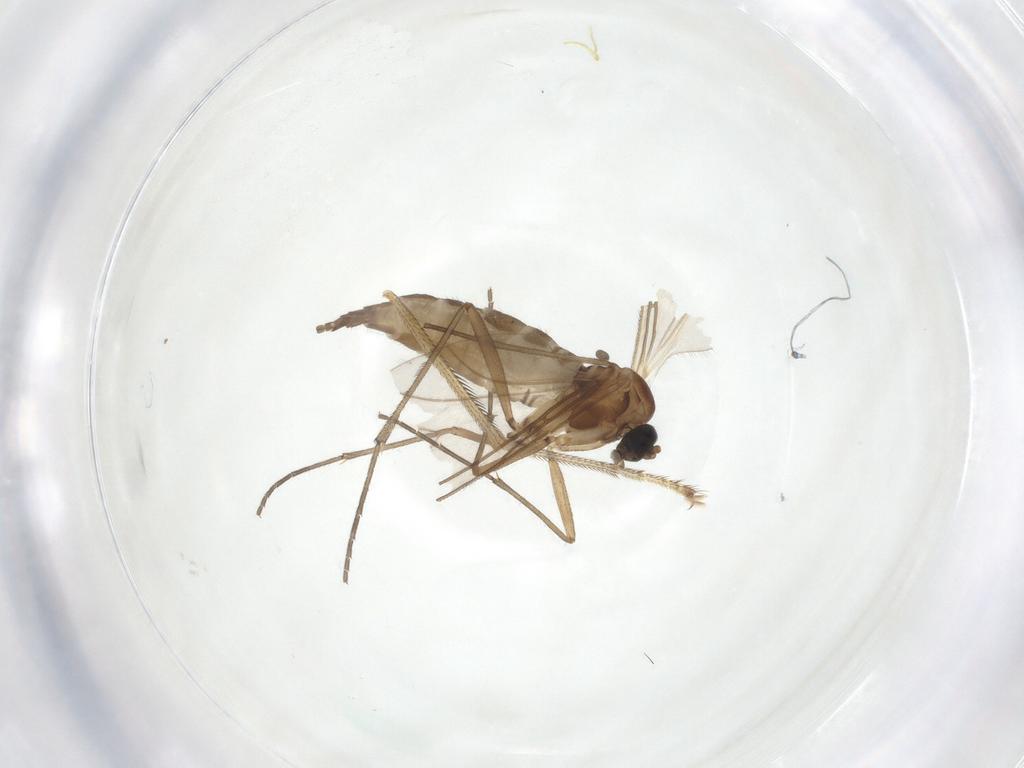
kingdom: Animalia
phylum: Arthropoda
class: Insecta
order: Diptera
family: Sciaridae
